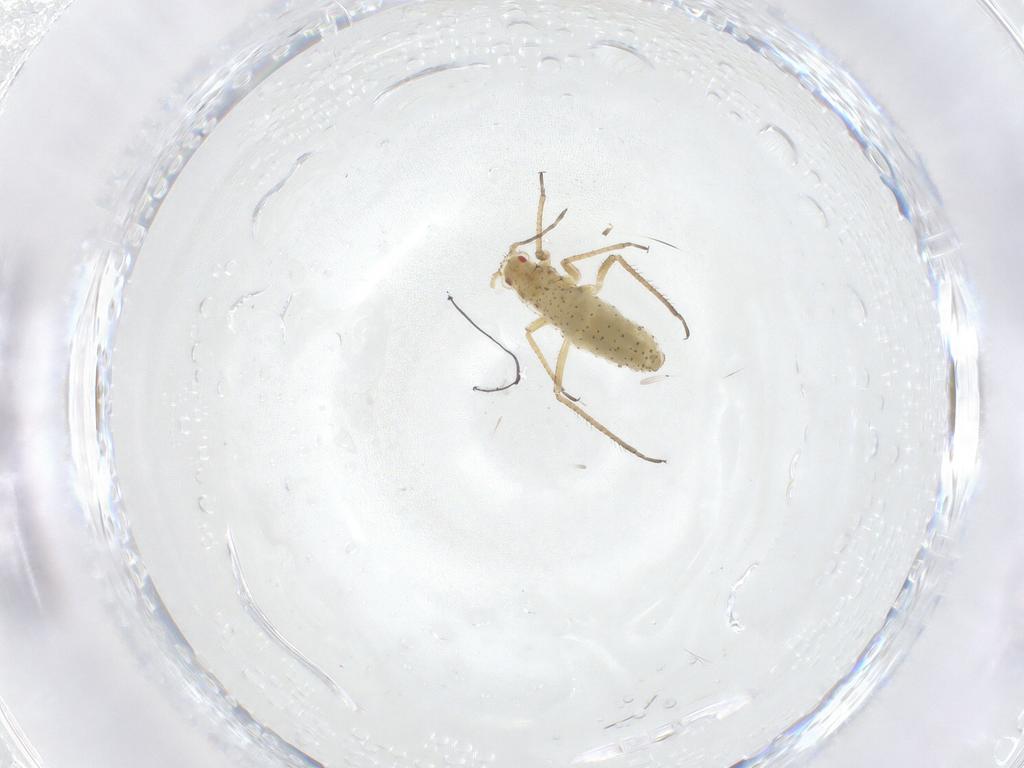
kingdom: Animalia
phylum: Arthropoda
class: Insecta
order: Hemiptera
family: Aphididae
